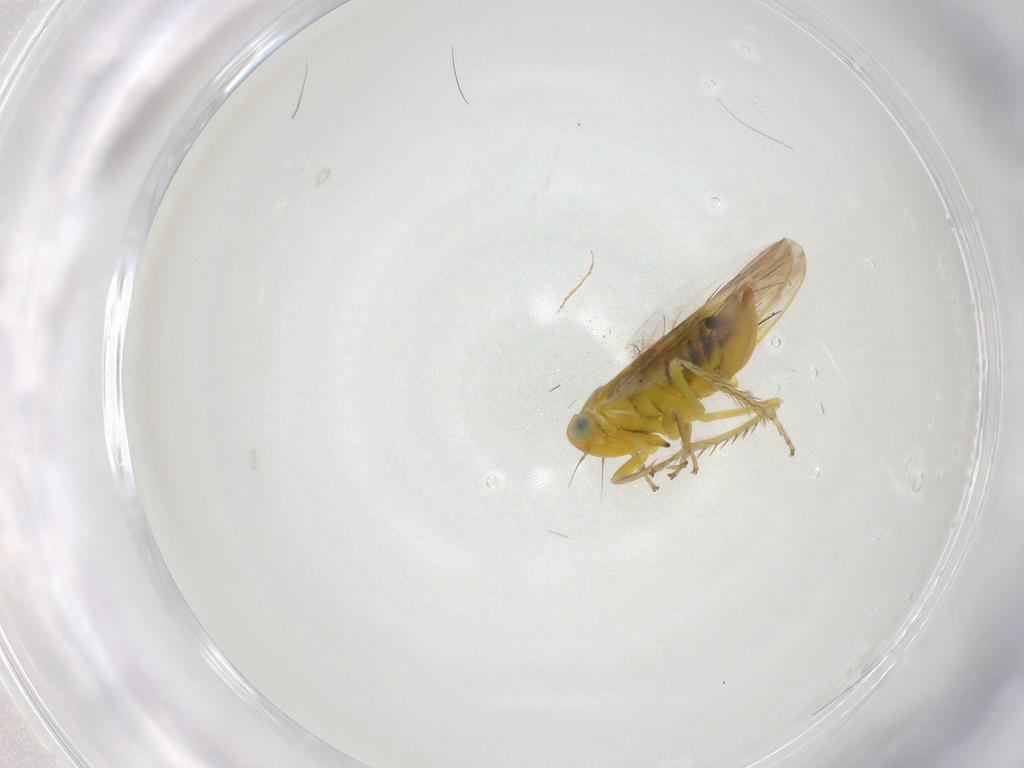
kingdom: Animalia
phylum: Arthropoda
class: Insecta
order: Hemiptera
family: Cicadellidae
